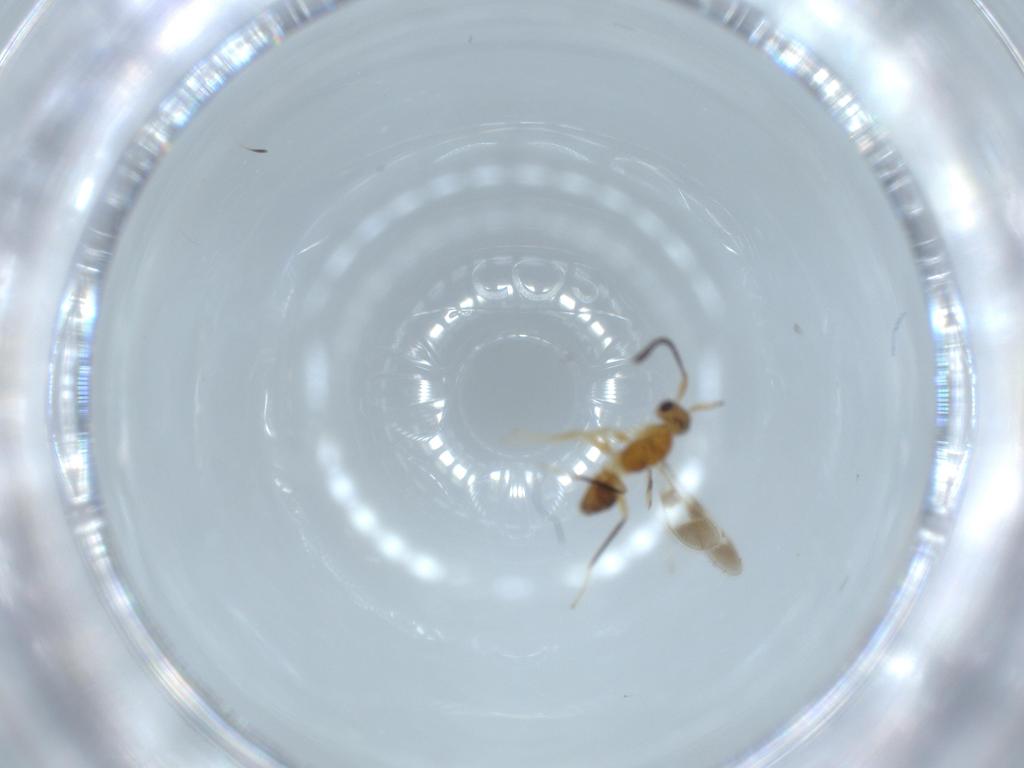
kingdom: Animalia
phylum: Arthropoda
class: Insecta
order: Hymenoptera
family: Mymaridae
